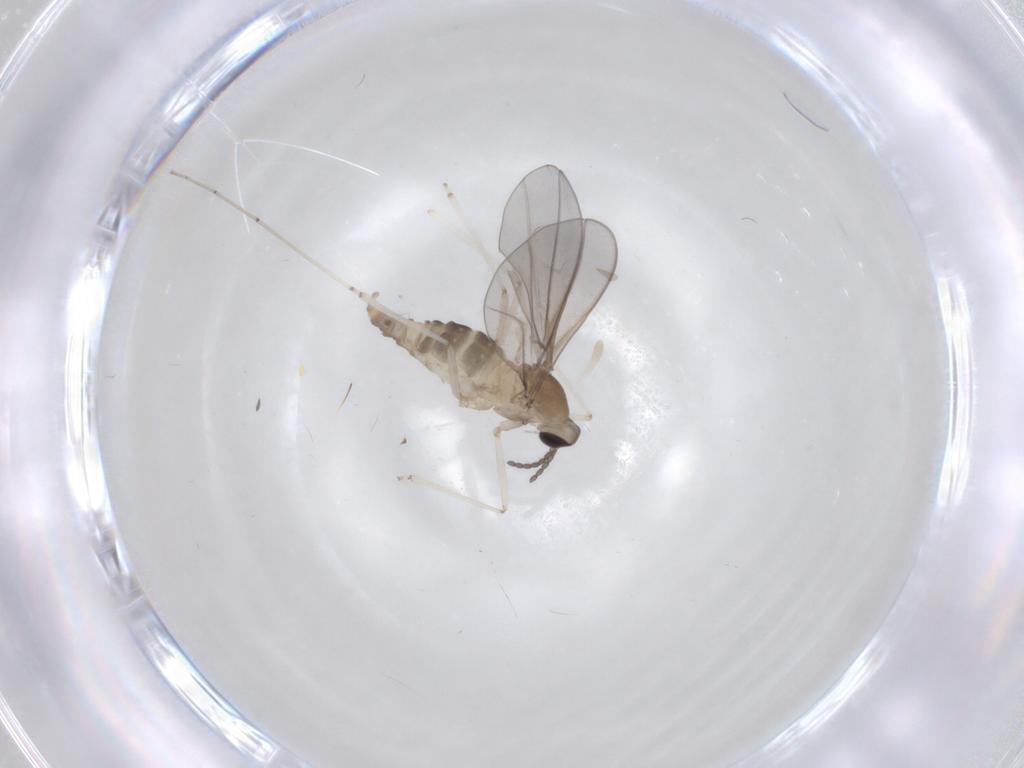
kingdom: Animalia
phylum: Arthropoda
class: Insecta
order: Diptera
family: Cecidomyiidae
